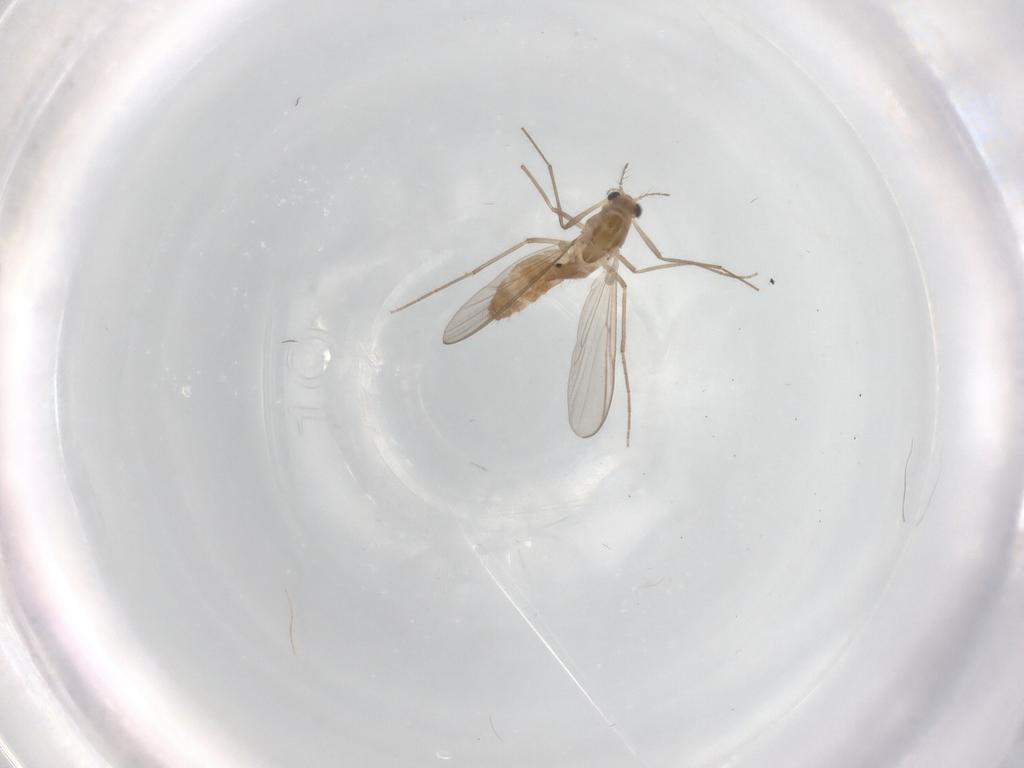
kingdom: Animalia
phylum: Arthropoda
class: Insecta
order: Diptera
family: Chironomidae
